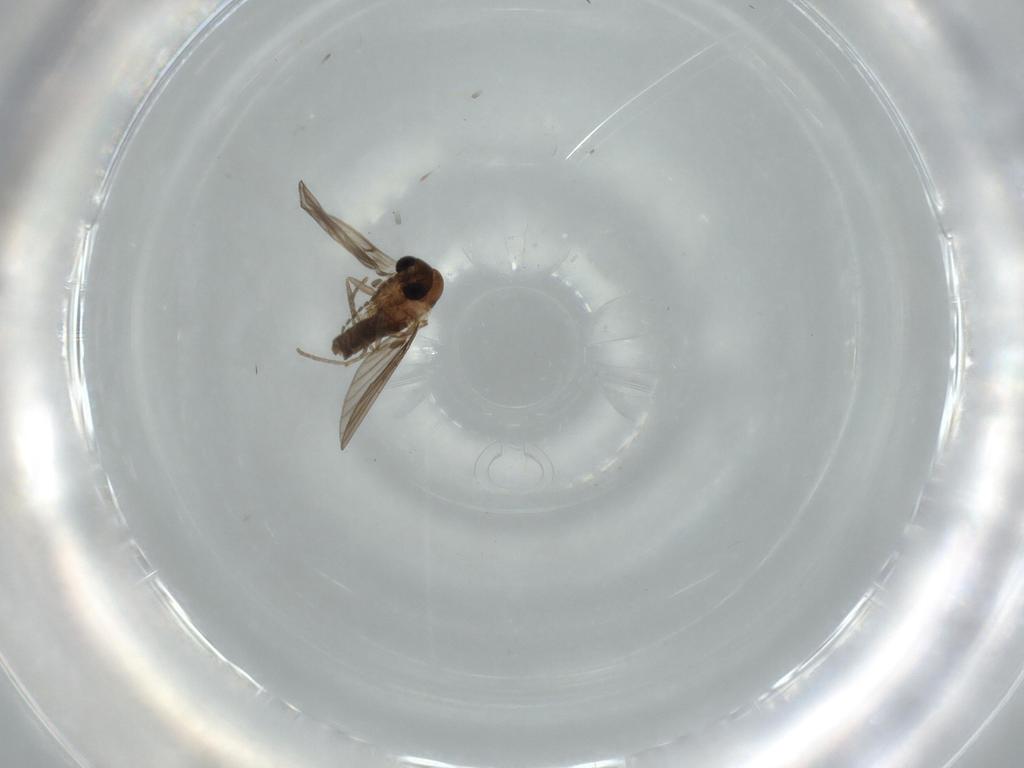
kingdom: Animalia
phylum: Arthropoda
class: Insecta
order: Diptera
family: Psychodidae
